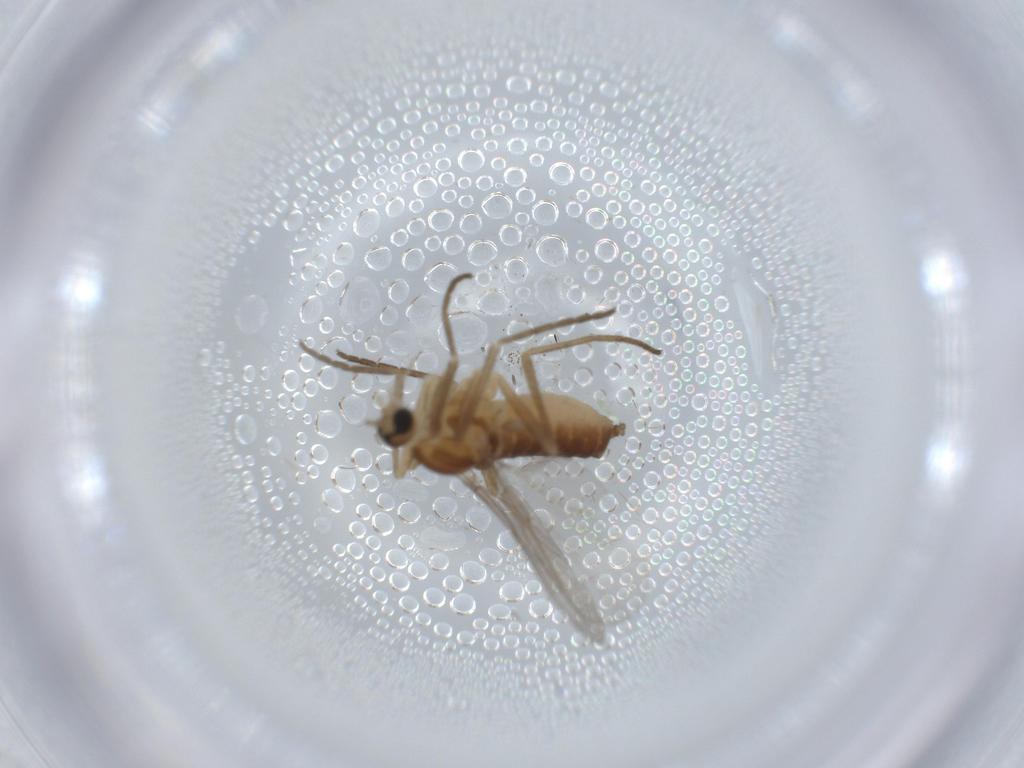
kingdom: Animalia
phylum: Arthropoda
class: Insecta
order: Diptera
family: Cecidomyiidae
